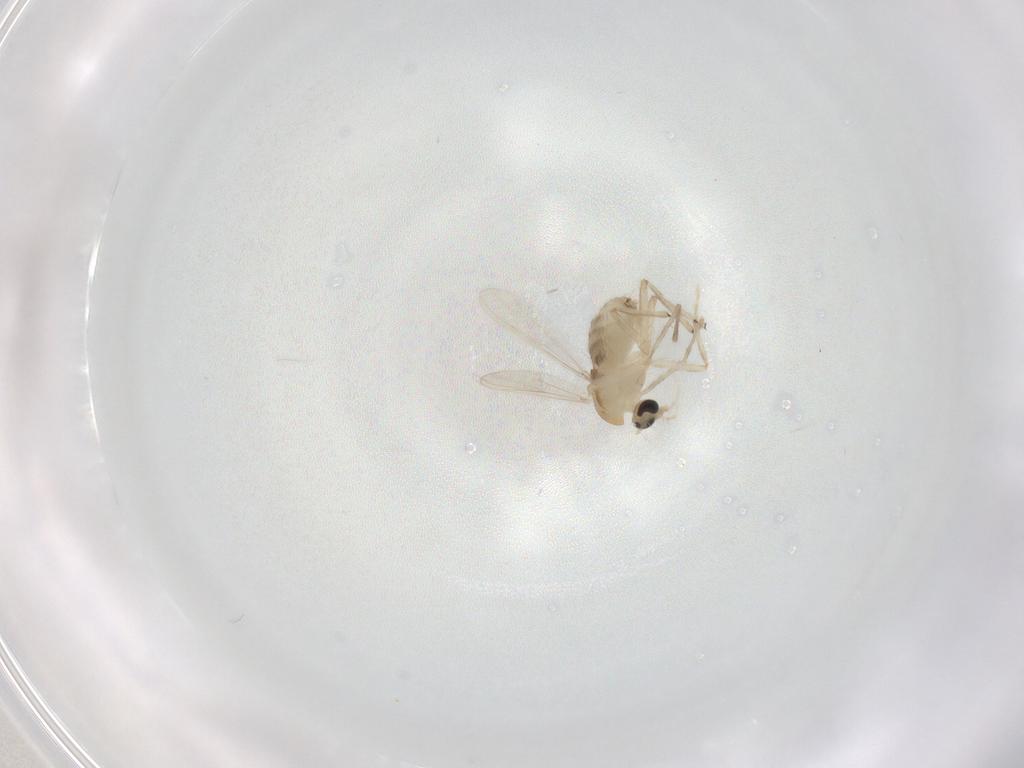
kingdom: Animalia
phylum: Arthropoda
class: Insecta
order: Diptera
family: Chironomidae
